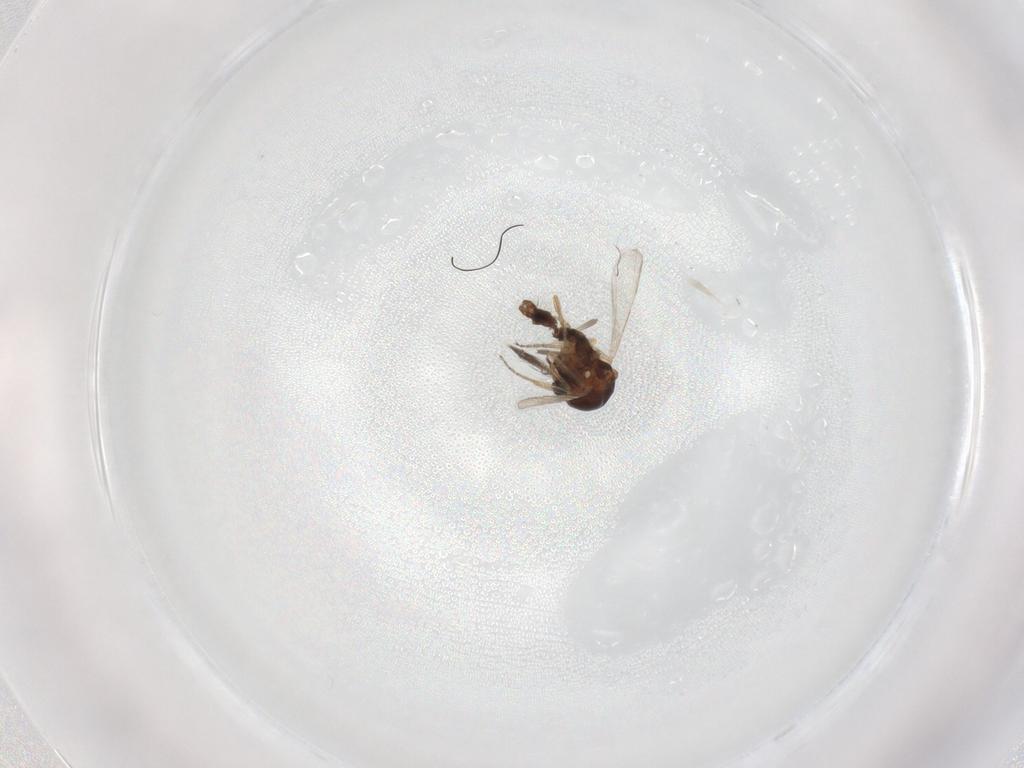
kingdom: Animalia
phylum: Arthropoda
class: Insecta
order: Diptera
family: Ceratopogonidae
